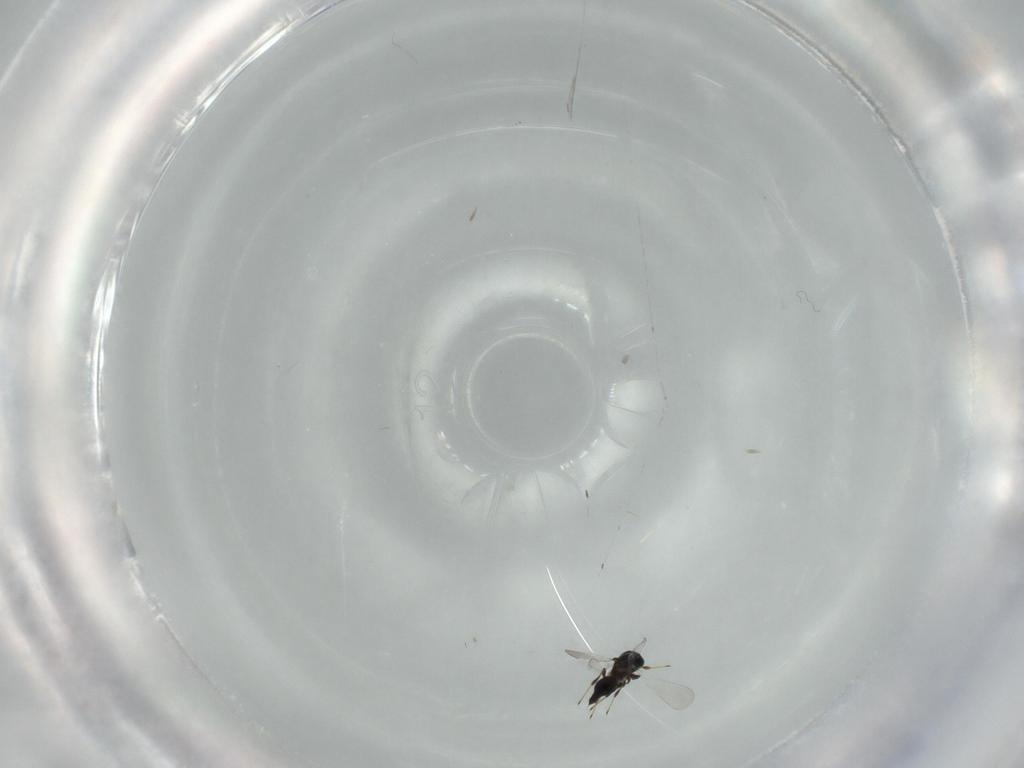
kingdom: Animalia
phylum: Arthropoda
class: Insecta
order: Hymenoptera
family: Platygastridae
